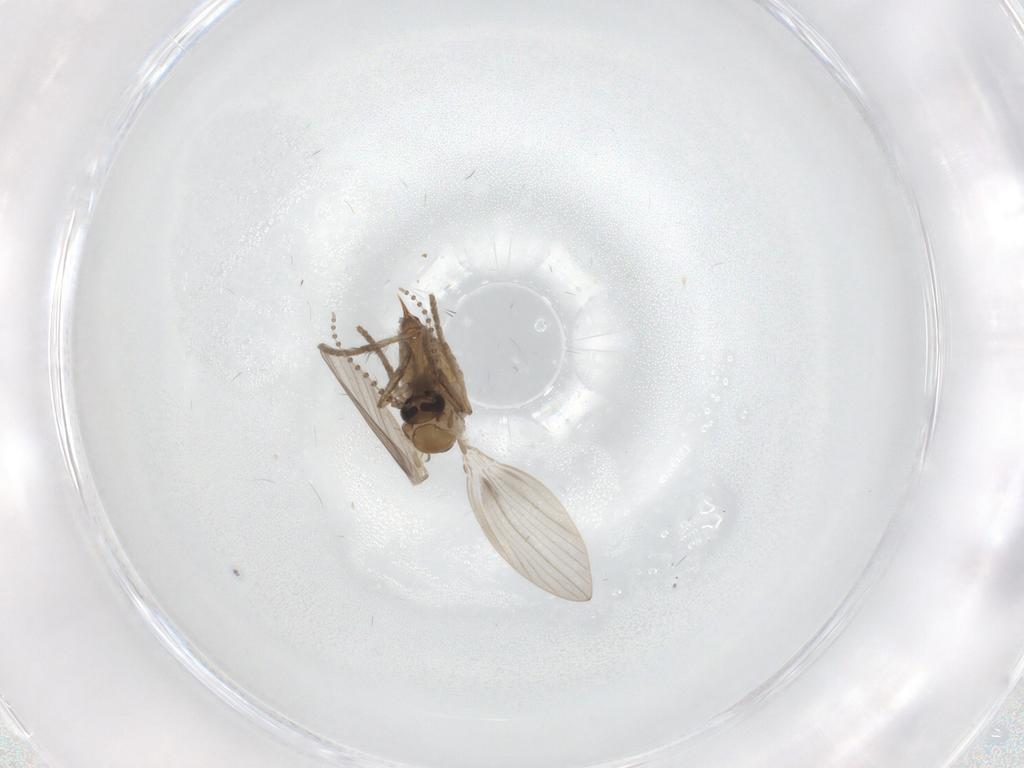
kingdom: Animalia
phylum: Arthropoda
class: Insecta
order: Diptera
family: Psychodidae
